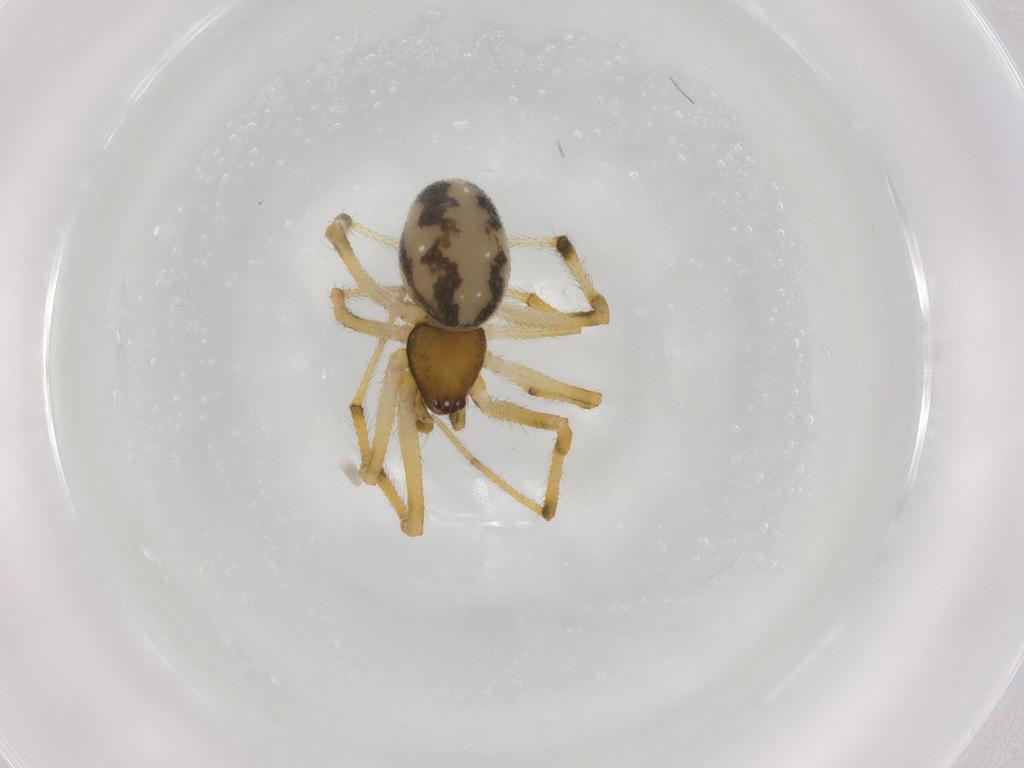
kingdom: Animalia
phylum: Arthropoda
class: Arachnida
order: Araneae
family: Theridiidae
